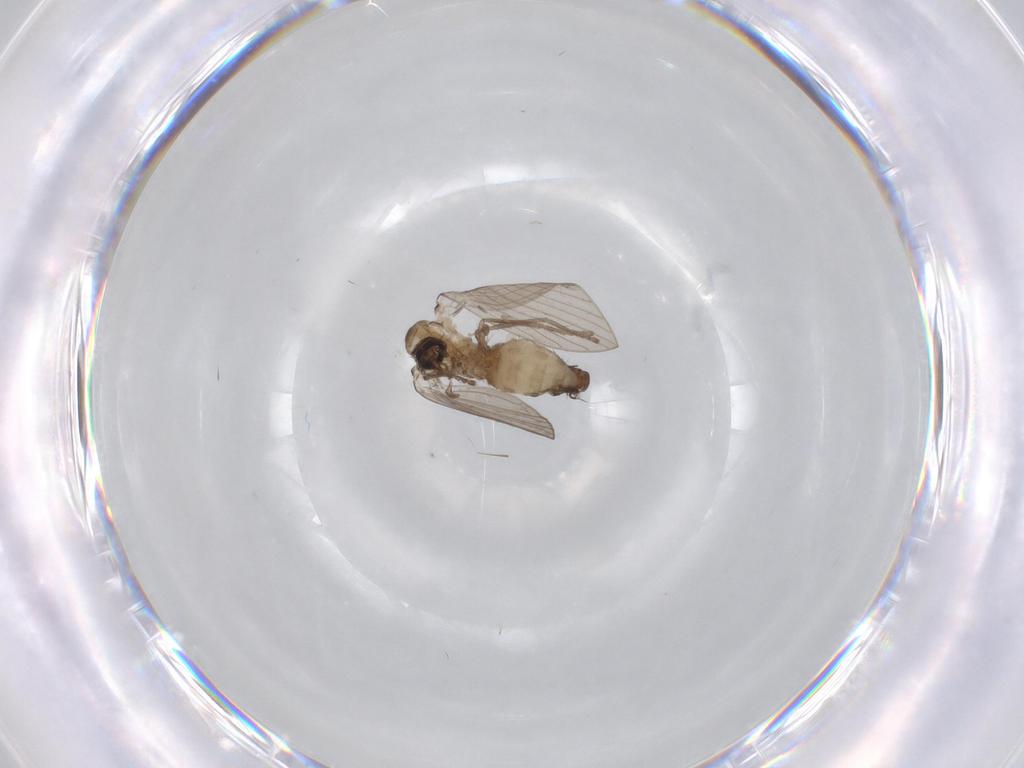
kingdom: Animalia
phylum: Arthropoda
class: Insecta
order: Diptera
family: Psychodidae
